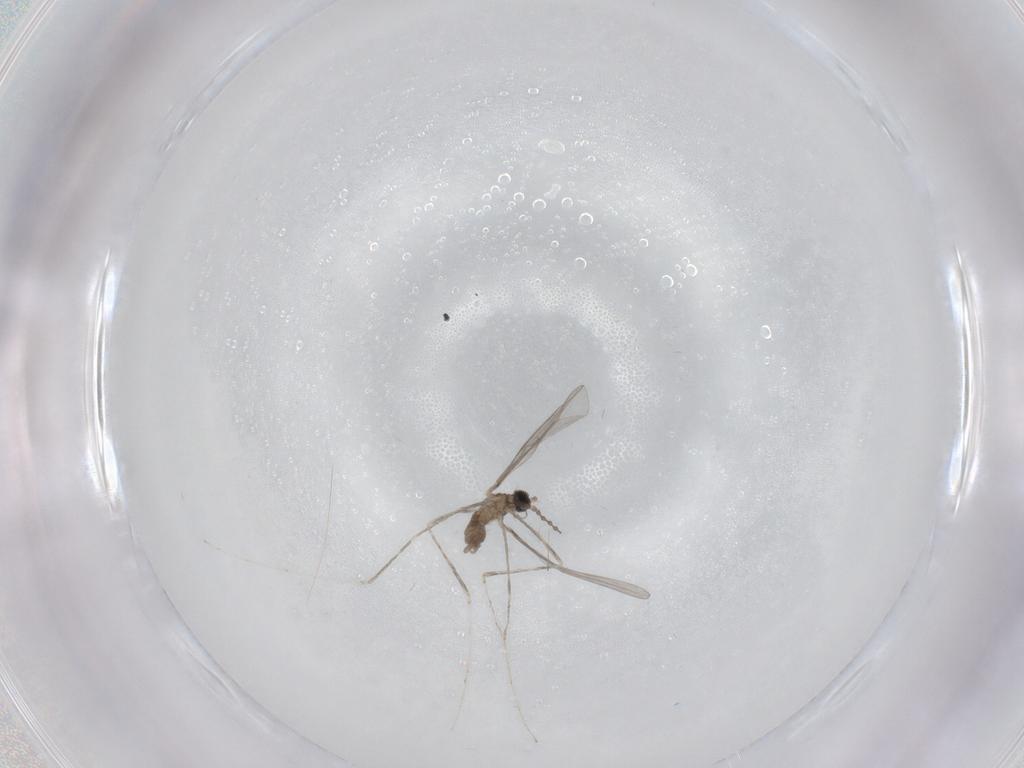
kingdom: Animalia
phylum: Arthropoda
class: Insecta
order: Diptera
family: Cecidomyiidae
